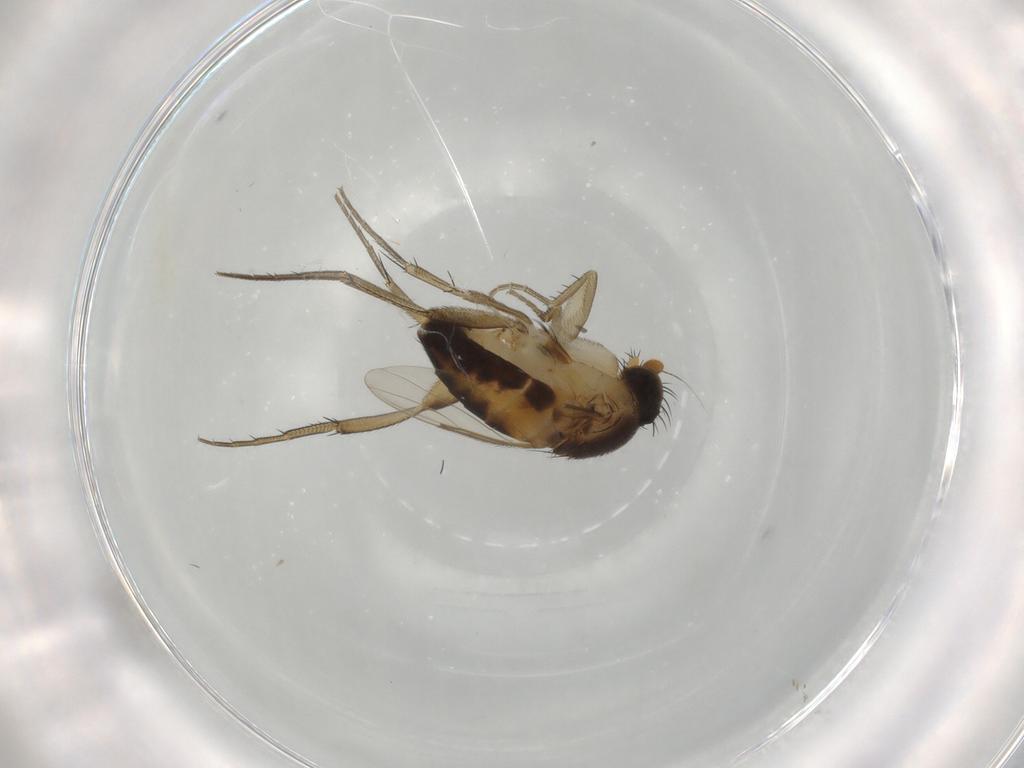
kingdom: Animalia
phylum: Arthropoda
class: Insecta
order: Diptera
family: Phoridae
